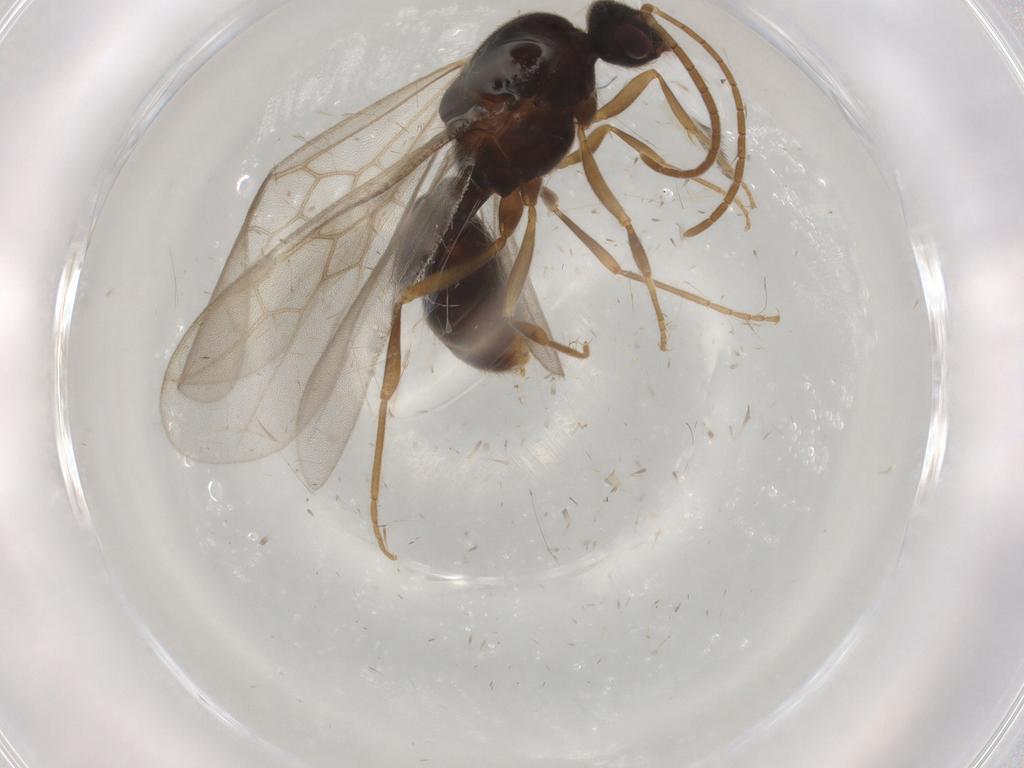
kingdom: Animalia
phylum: Arthropoda
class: Insecta
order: Hymenoptera
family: Formicidae
